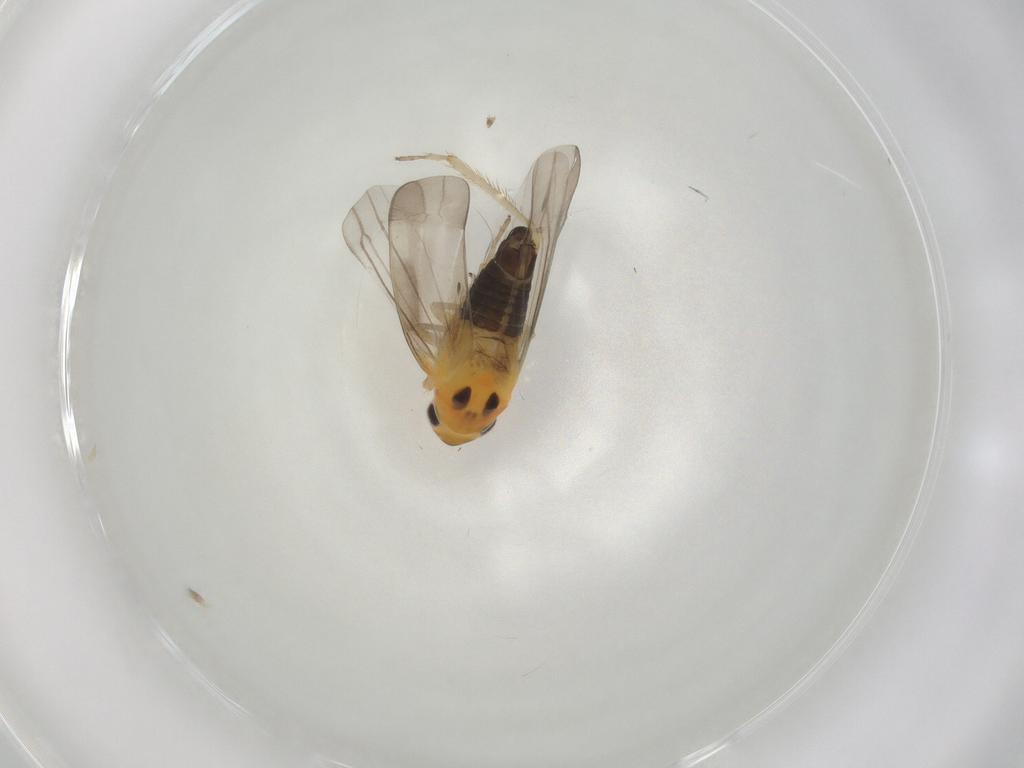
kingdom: Animalia
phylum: Arthropoda
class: Insecta
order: Hemiptera
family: Cicadellidae
